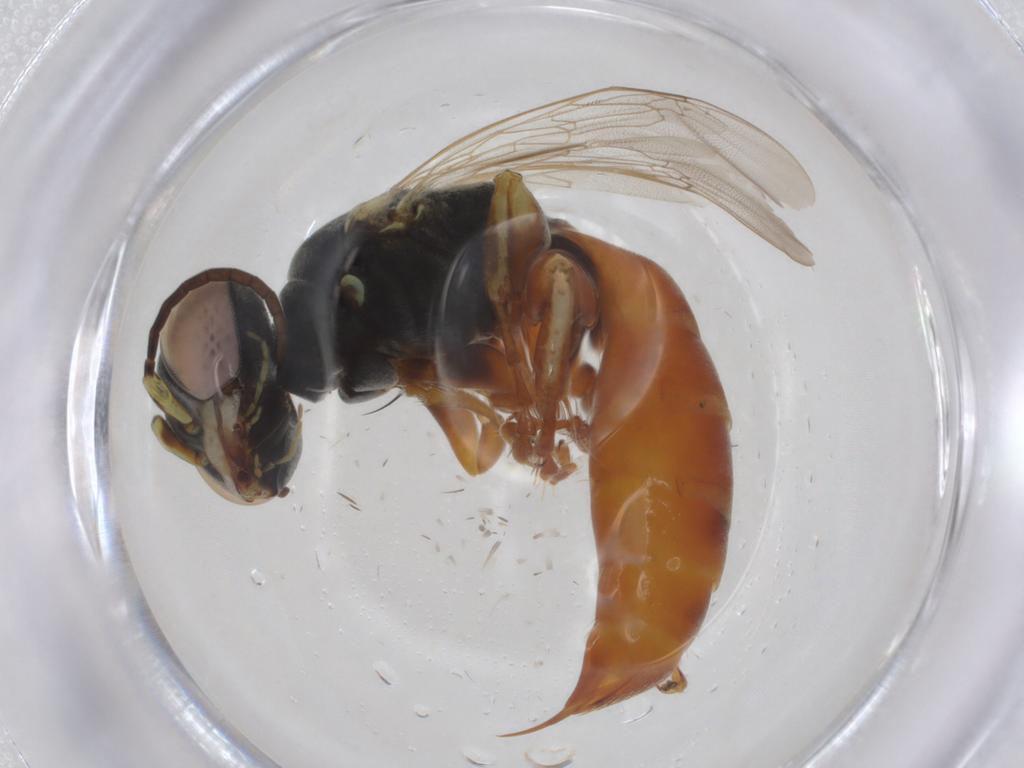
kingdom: Animalia
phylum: Arthropoda
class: Insecta
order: Hymenoptera
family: Crabronidae
